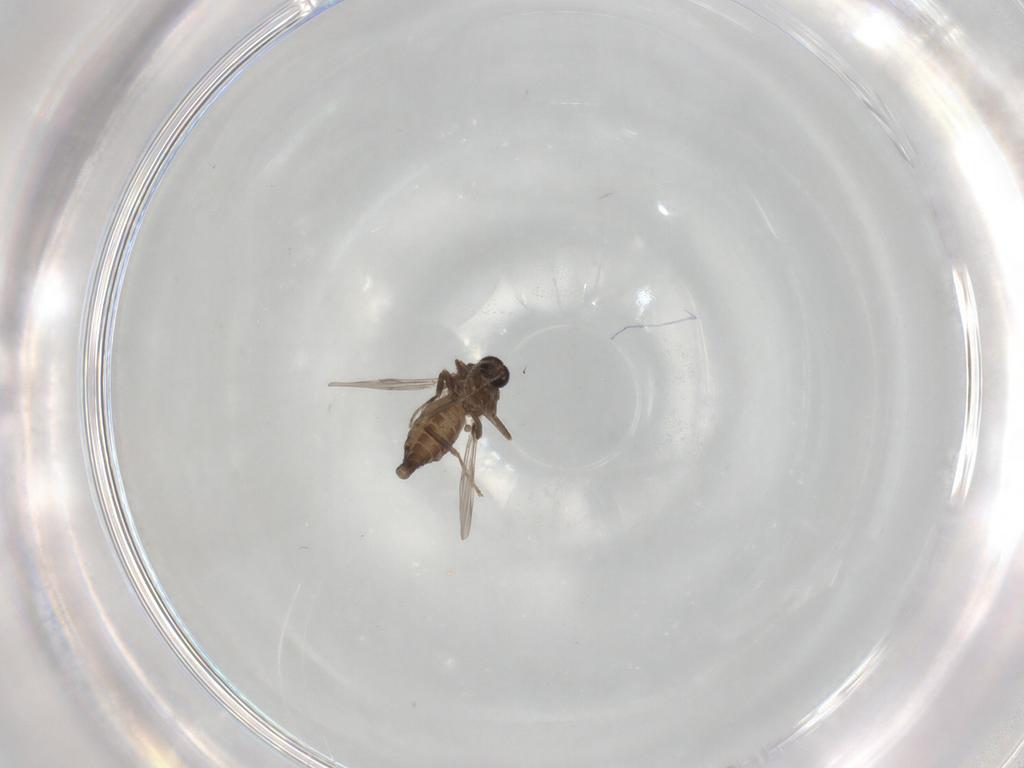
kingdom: Animalia
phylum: Arthropoda
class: Insecta
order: Diptera
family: Ceratopogonidae
